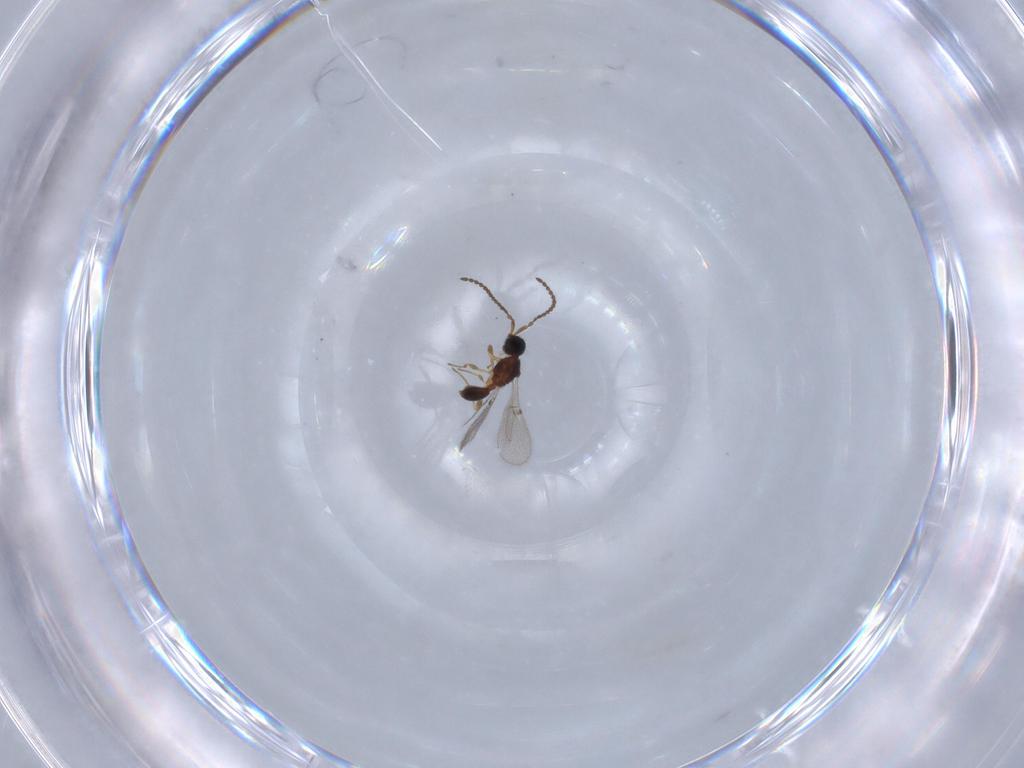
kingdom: Animalia
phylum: Arthropoda
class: Insecta
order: Hymenoptera
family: Diapriidae
